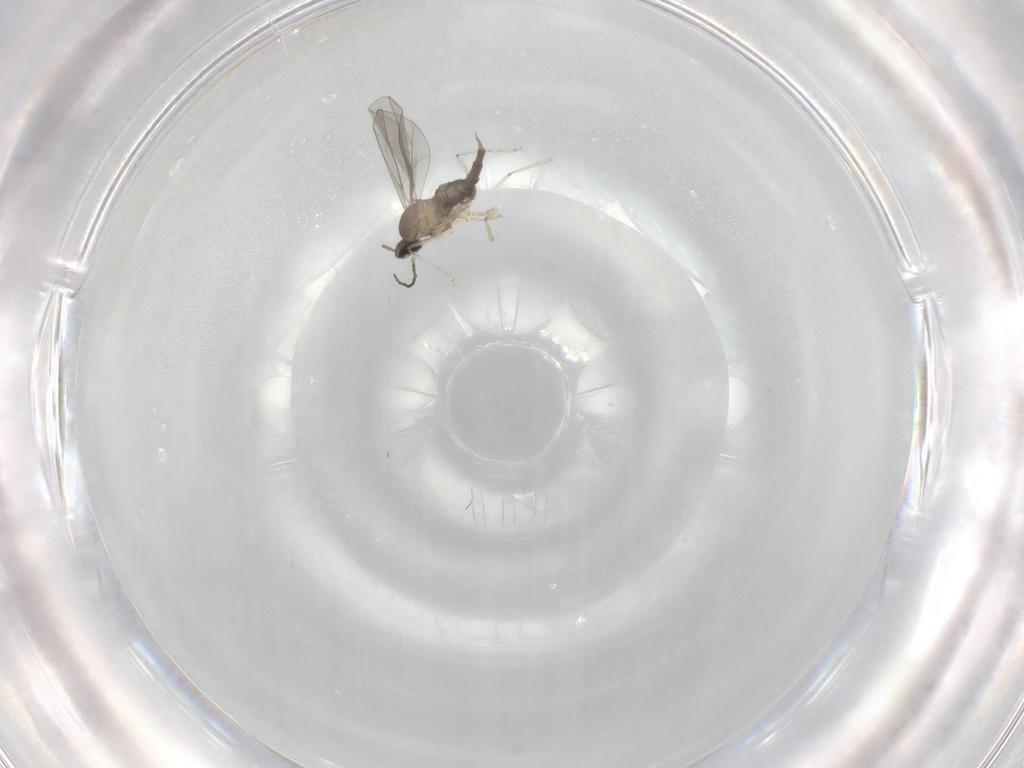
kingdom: Animalia
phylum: Arthropoda
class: Insecta
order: Diptera
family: Cecidomyiidae
